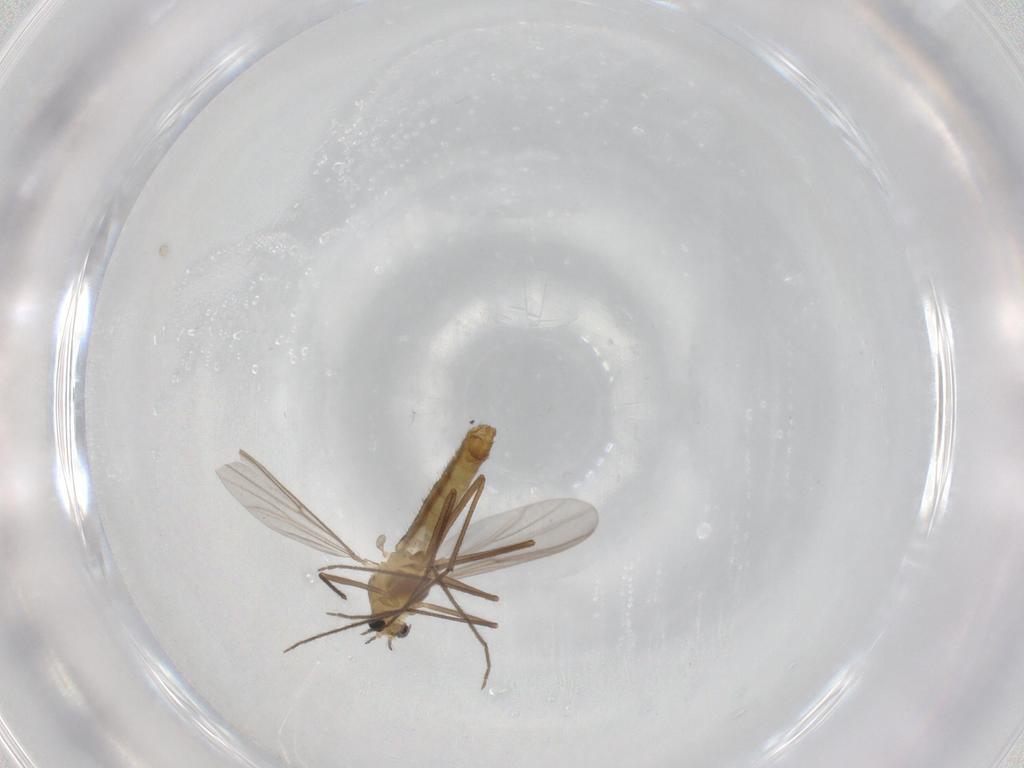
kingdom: Animalia
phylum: Arthropoda
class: Insecta
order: Diptera
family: Cecidomyiidae
